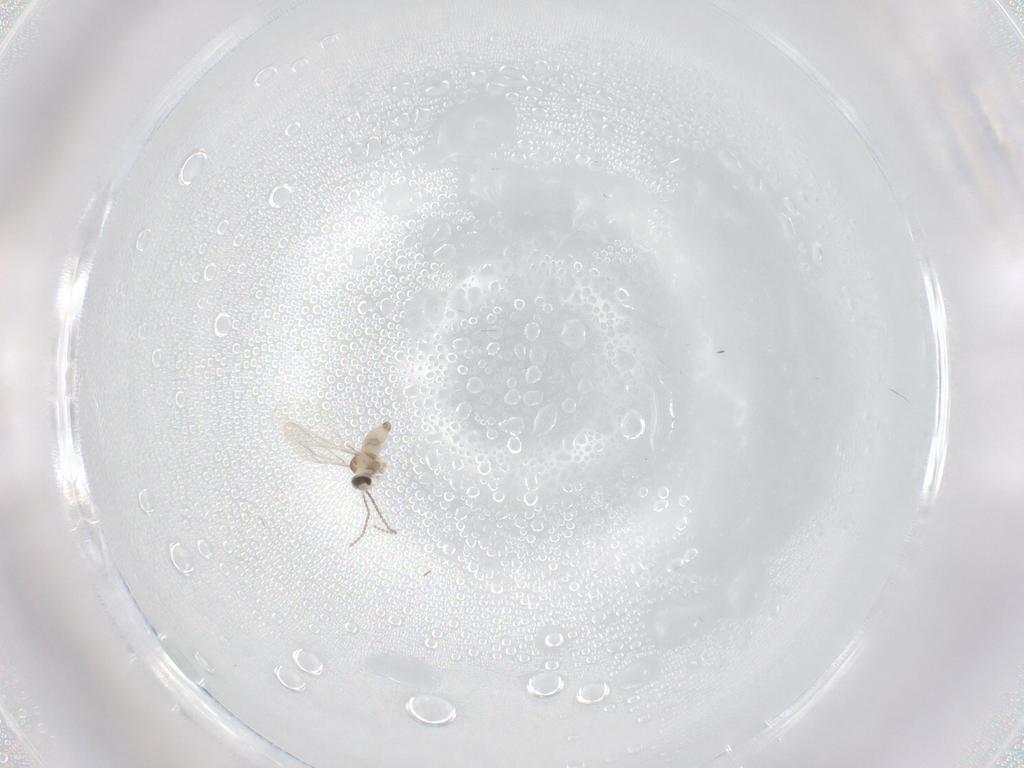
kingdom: Animalia
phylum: Arthropoda
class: Insecta
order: Diptera
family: Cecidomyiidae
